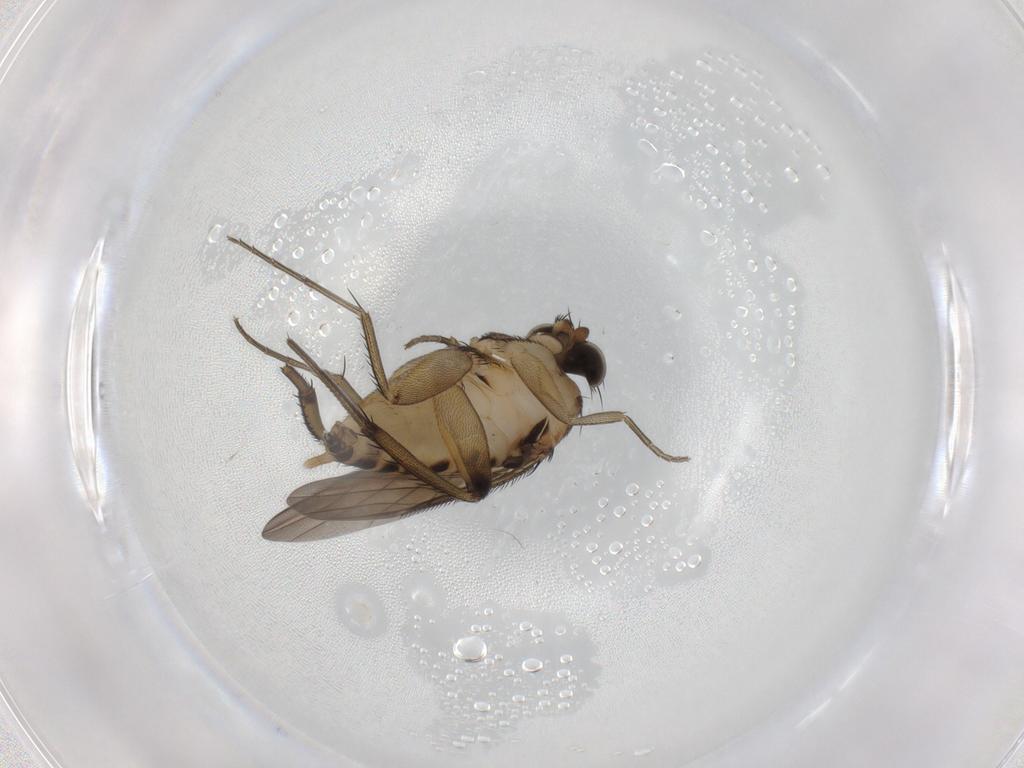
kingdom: Animalia
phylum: Arthropoda
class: Insecta
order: Diptera
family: Phoridae
